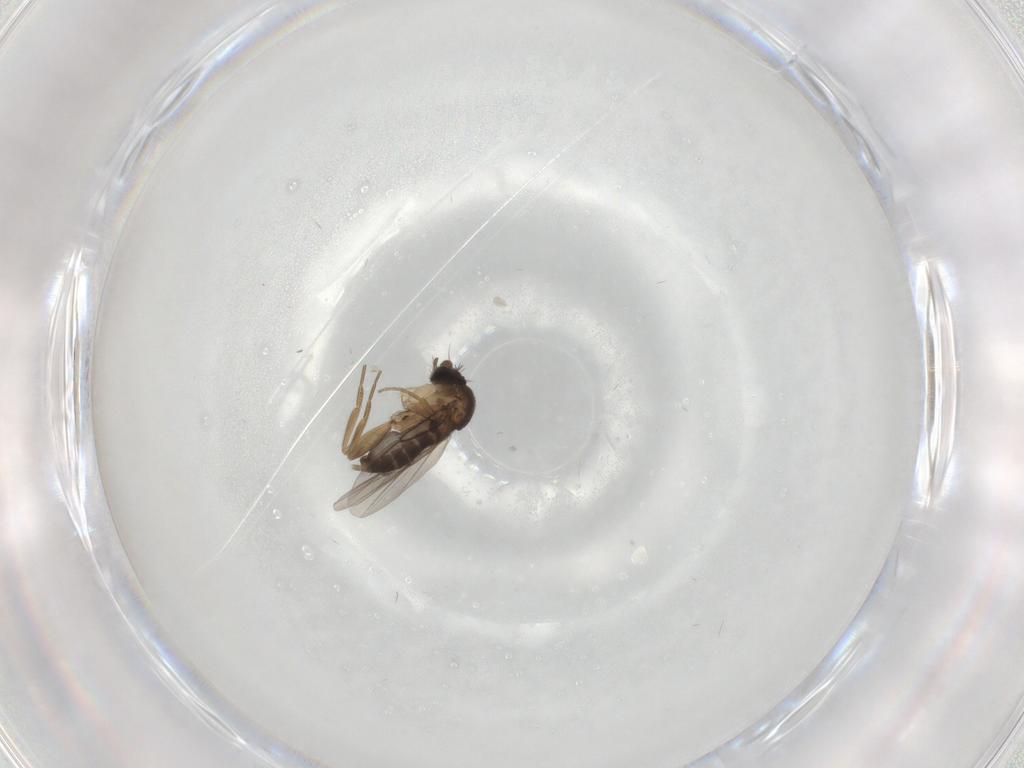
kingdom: Animalia
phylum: Arthropoda
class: Insecta
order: Diptera
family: Phoridae
